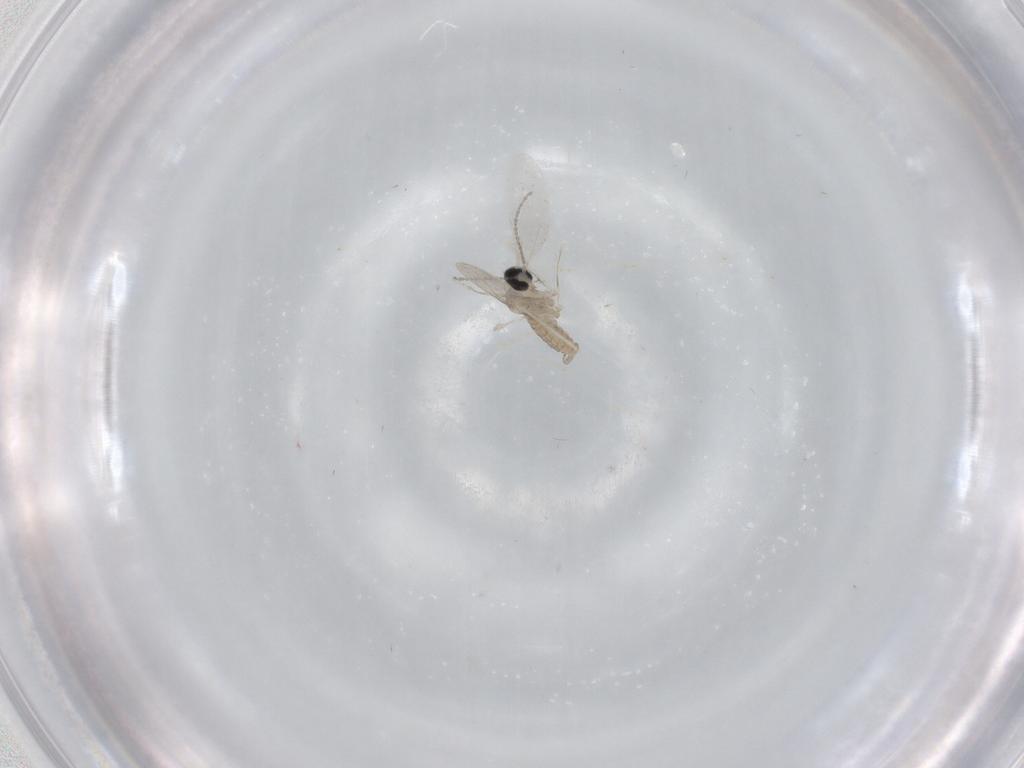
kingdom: Animalia
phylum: Arthropoda
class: Insecta
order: Diptera
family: Cecidomyiidae
